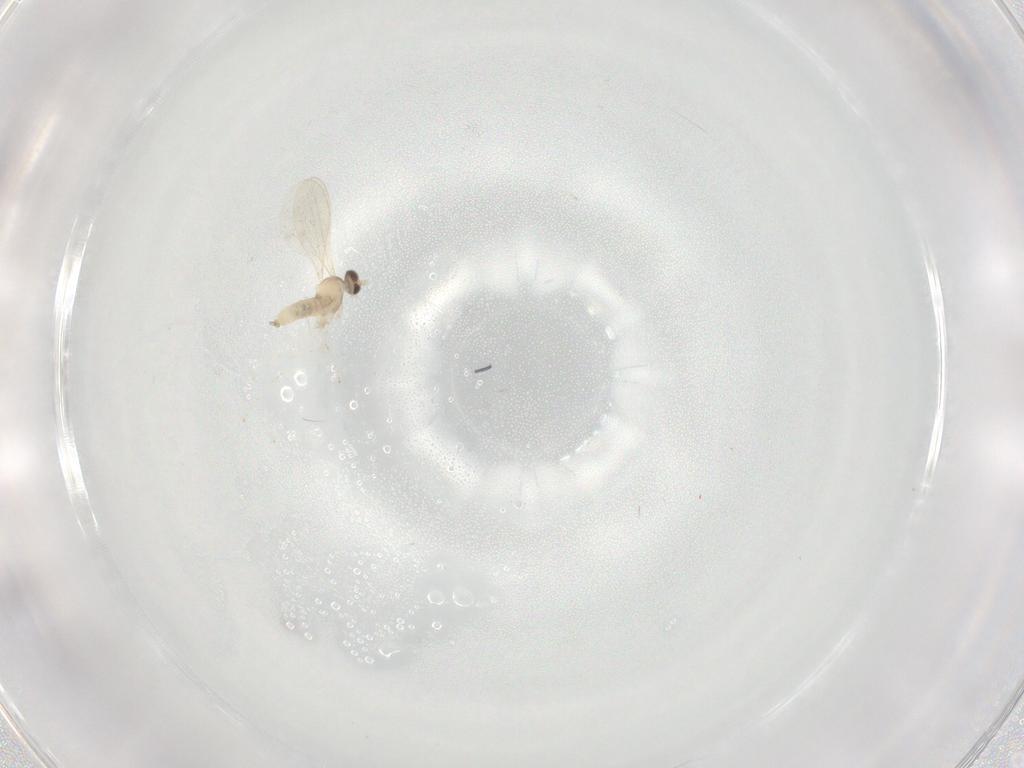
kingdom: Animalia
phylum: Arthropoda
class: Insecta
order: Diptera
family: Cecidomyiidae
